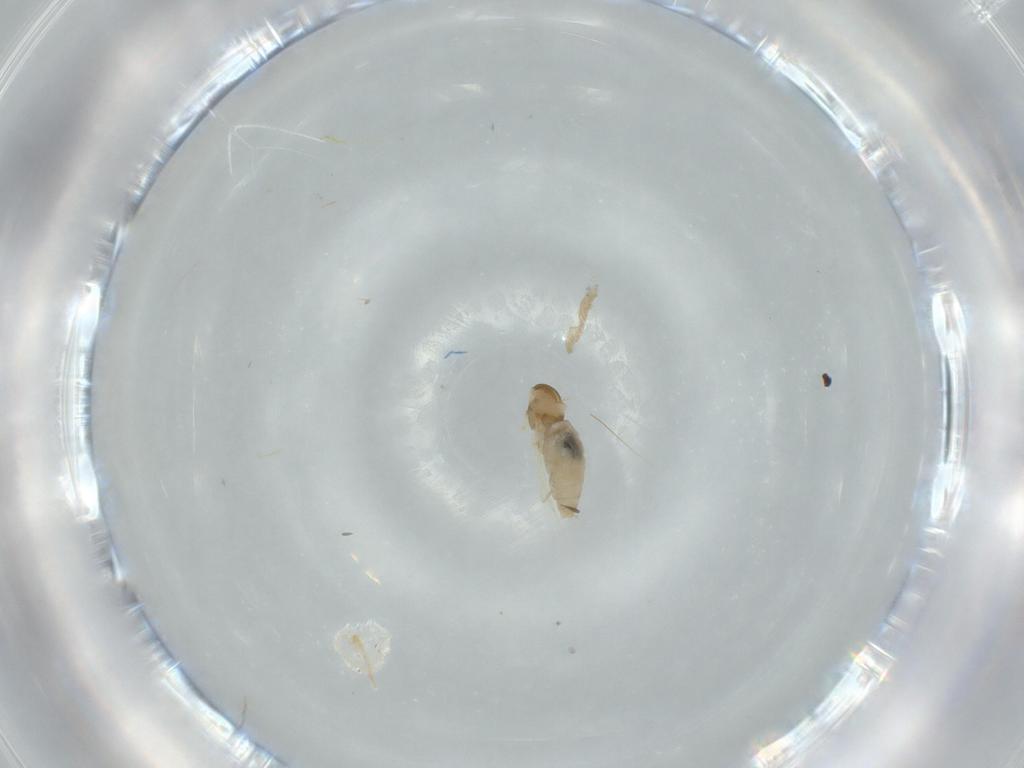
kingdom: Animalia
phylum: Arthropoda
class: Insecta
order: Diptera
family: Cecidomyiidae
